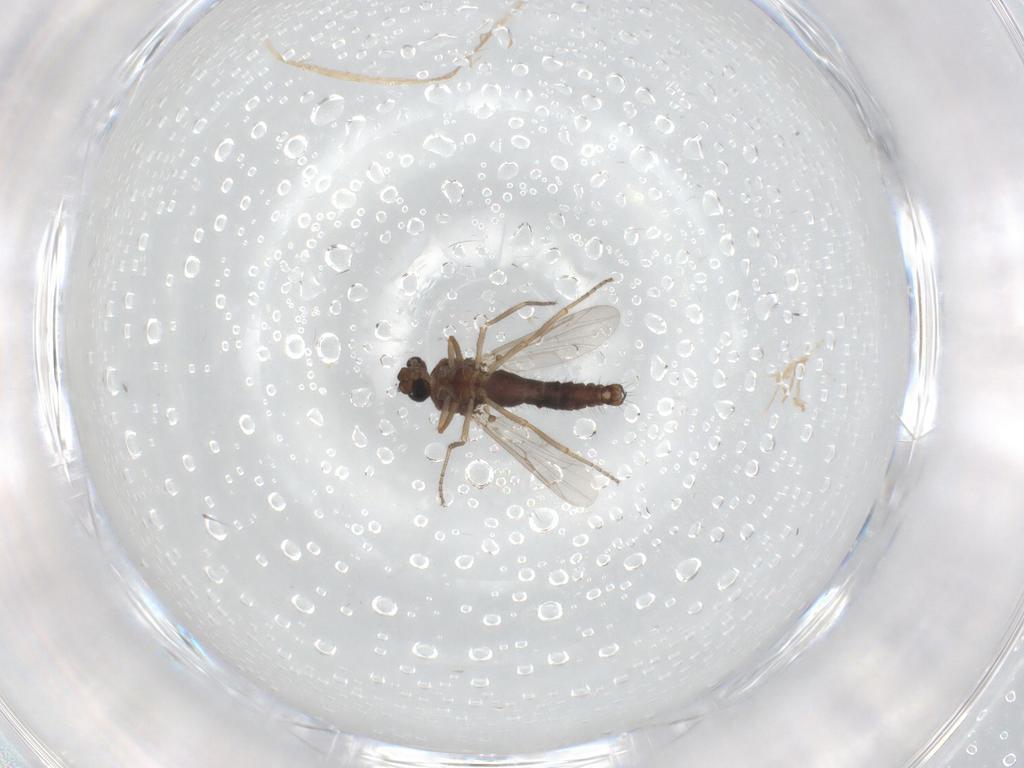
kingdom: Animalia
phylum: Arthropoda
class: Insecta
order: Diptera
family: Ceratopogonidae
